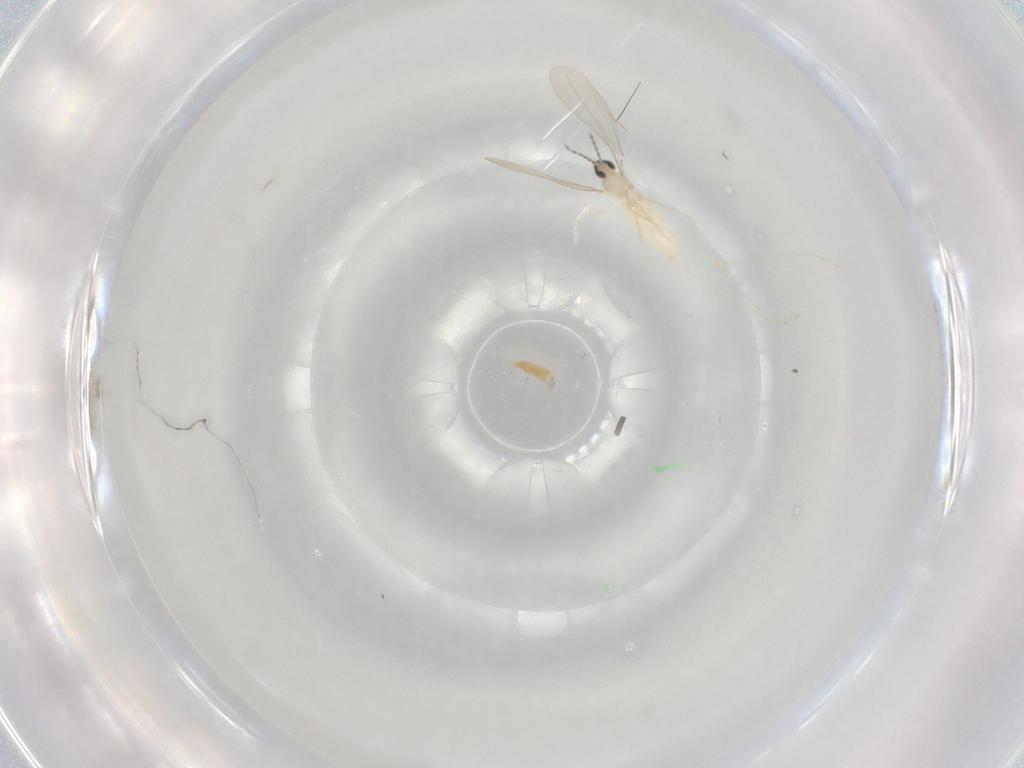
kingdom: Animalia
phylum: Arthropoda
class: Insecta
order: Diptera
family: Cecidomyiidae
